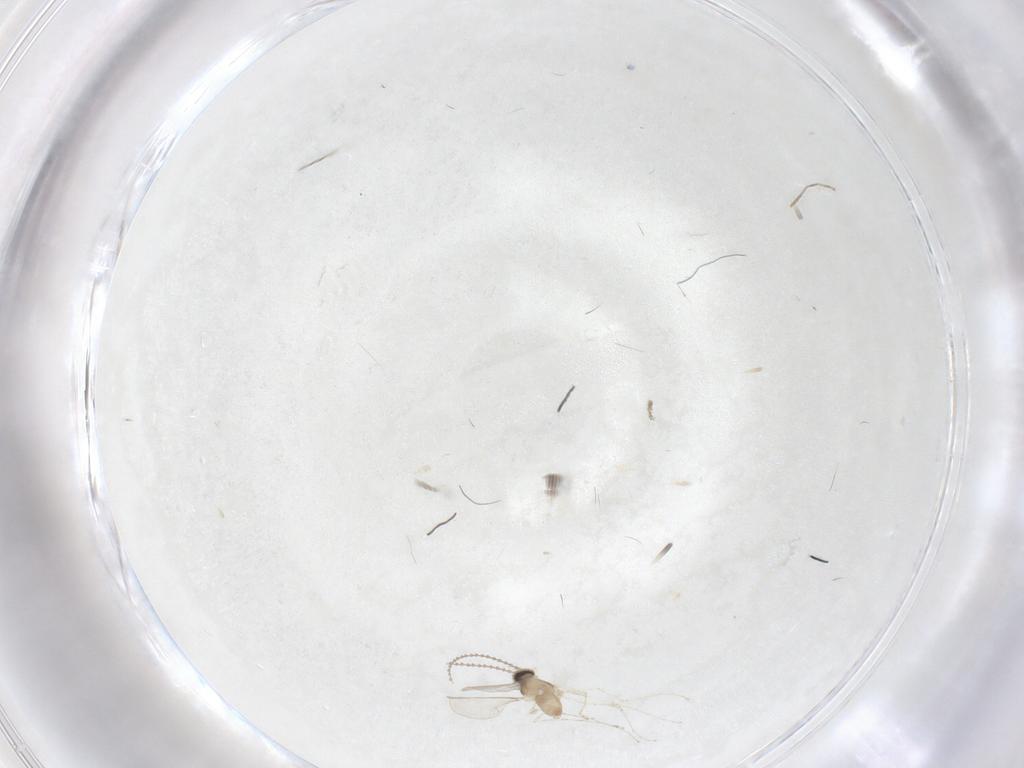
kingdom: Animalia
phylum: Arthropoda
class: Insecta
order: Diptera
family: Cecidomyiidae
